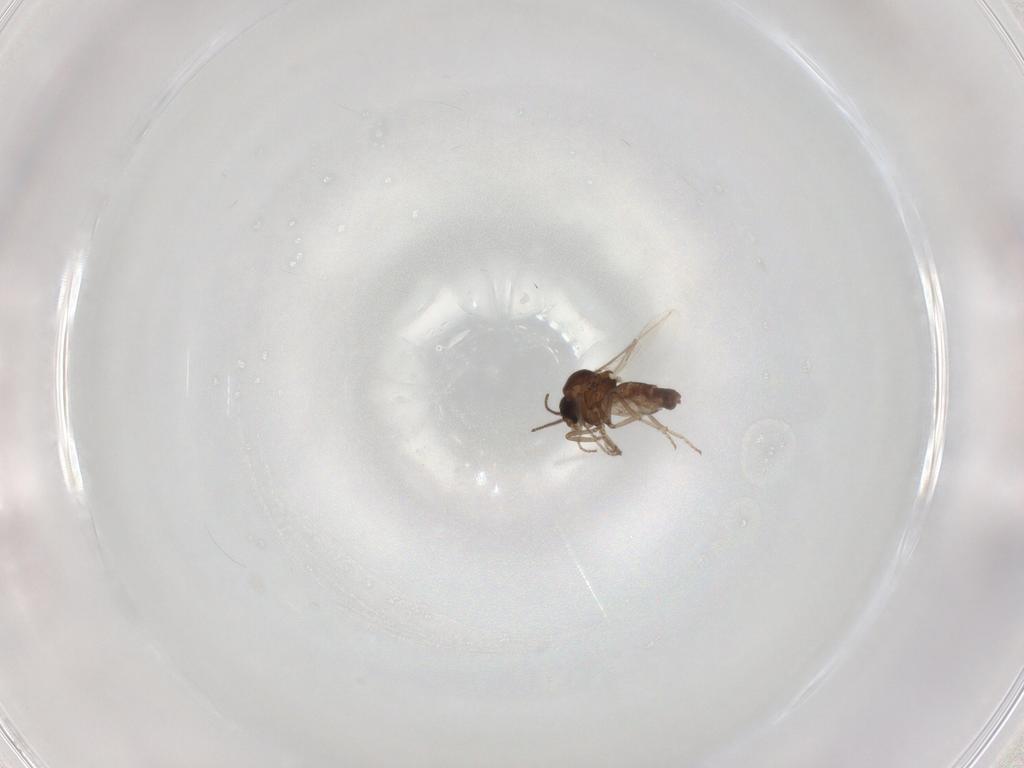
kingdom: Animalia
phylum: Arthropoda
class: Insecta
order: Diptera
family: Ceratopogonidae
